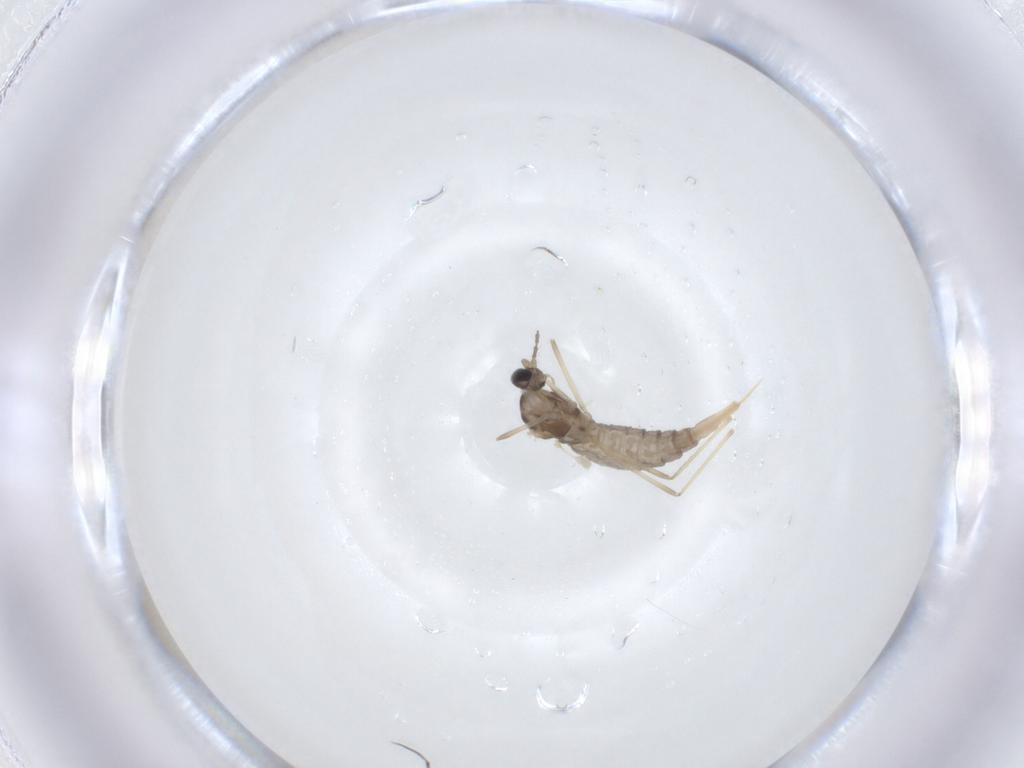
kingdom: Animalia
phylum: Arthropoda
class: Insecta
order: Diptera
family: Cecidomyiidae
